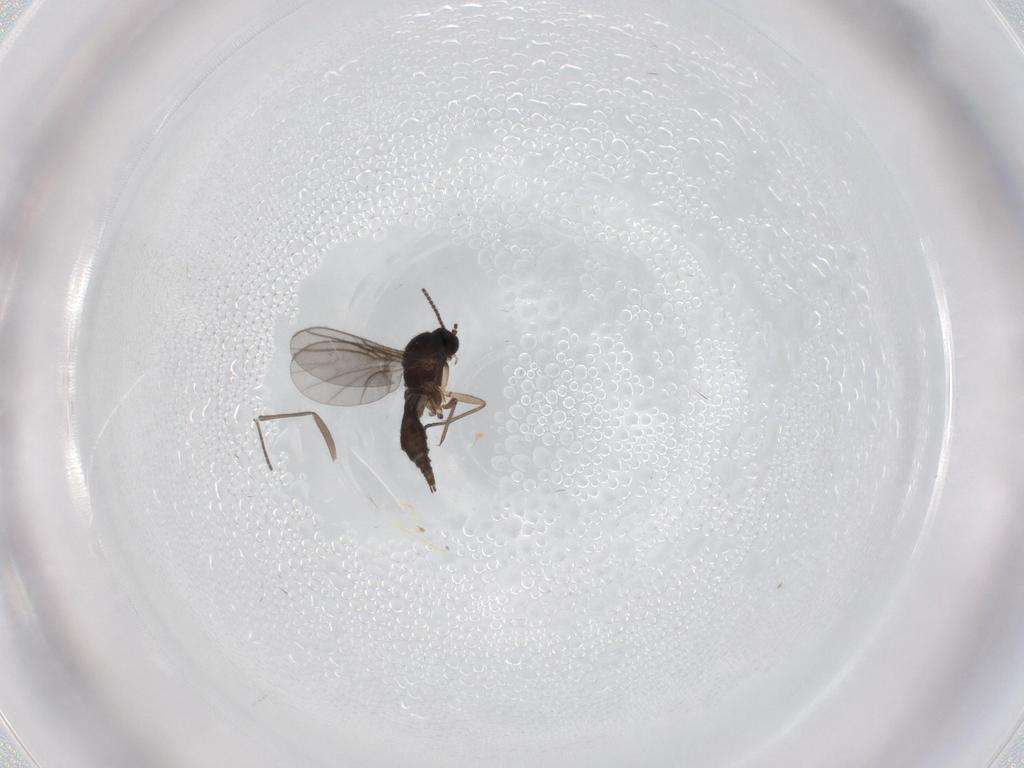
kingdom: Animalia
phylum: Arthropoda
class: Insecta
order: Diptera
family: Sciaridae
